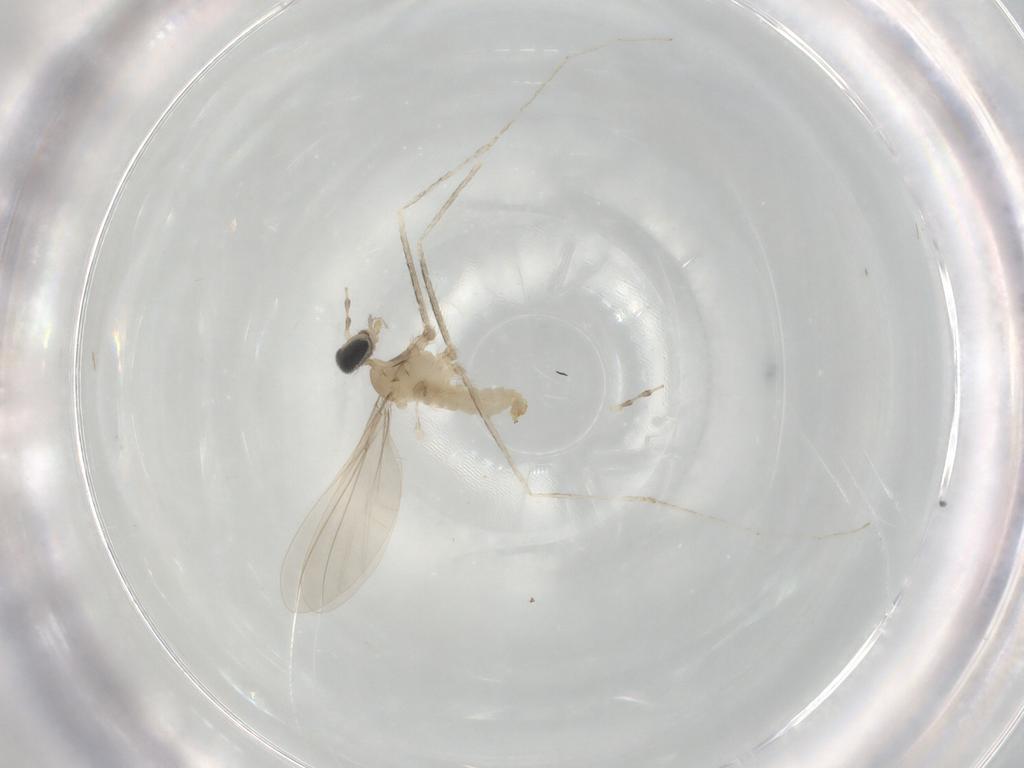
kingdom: Animalia
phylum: Arthropoda
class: Insecta
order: Diptera
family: Cecidomyiidae
